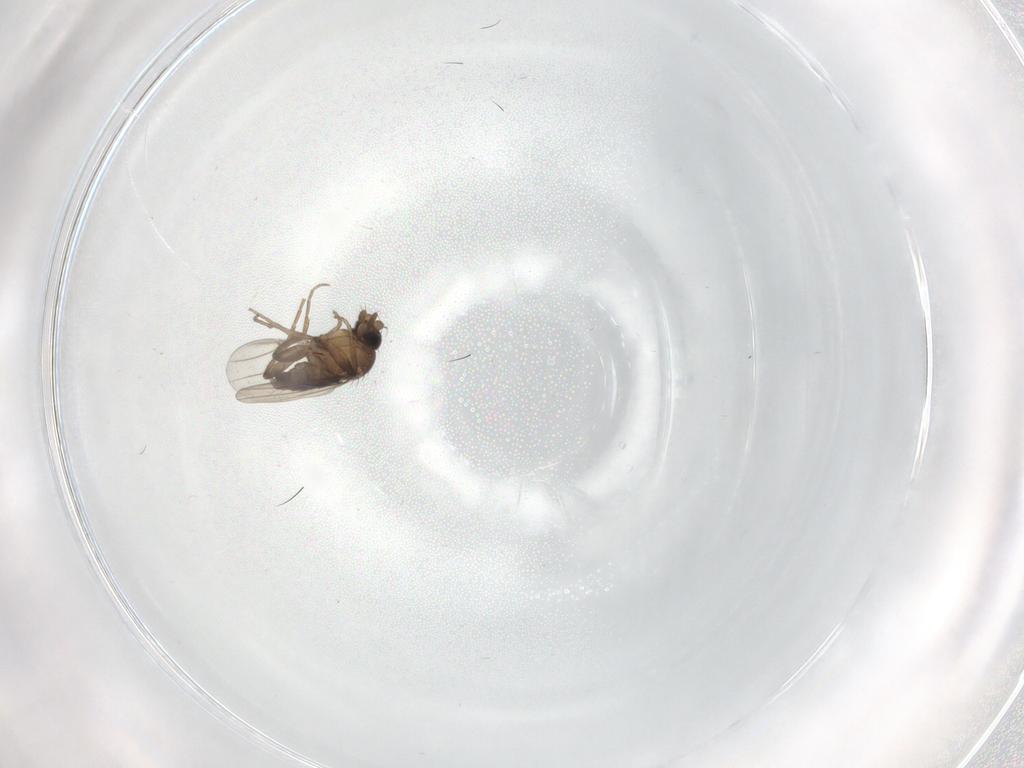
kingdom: Animalia
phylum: Arthropoda
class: Insecta
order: Diptera
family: Phoridae
